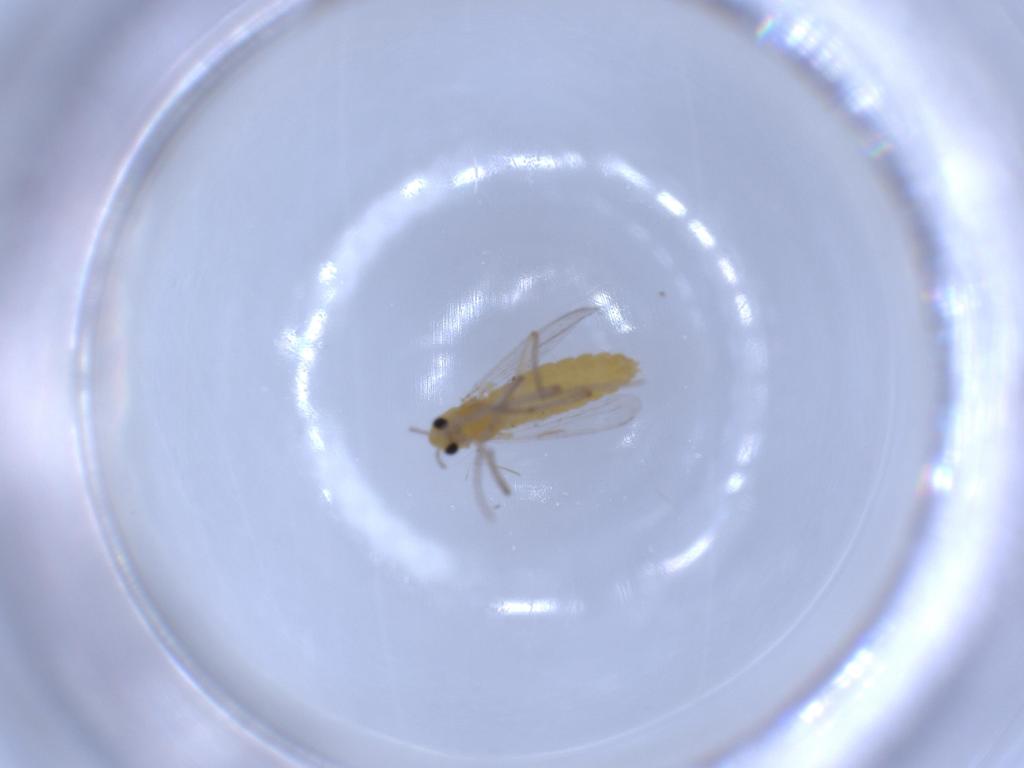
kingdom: Animalia
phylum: Arthropoda
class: Insecta
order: Diptera
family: Chironomidae
